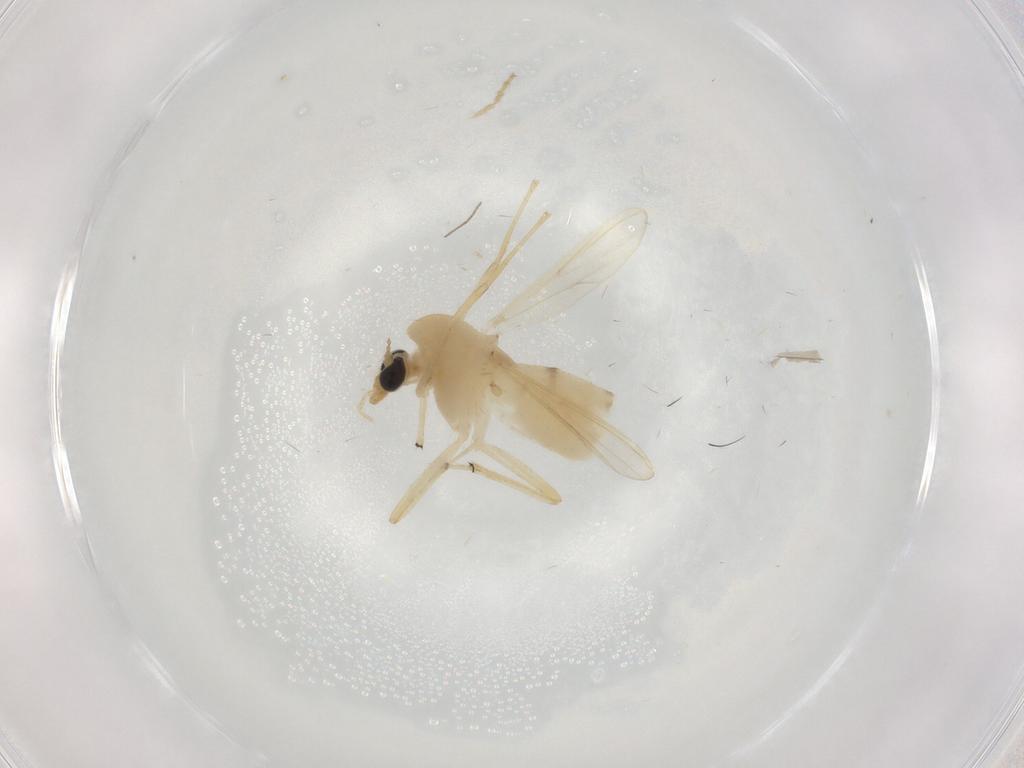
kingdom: Animalia
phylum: Arthropoda
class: Insecta
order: Diptera
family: Chironomidae
